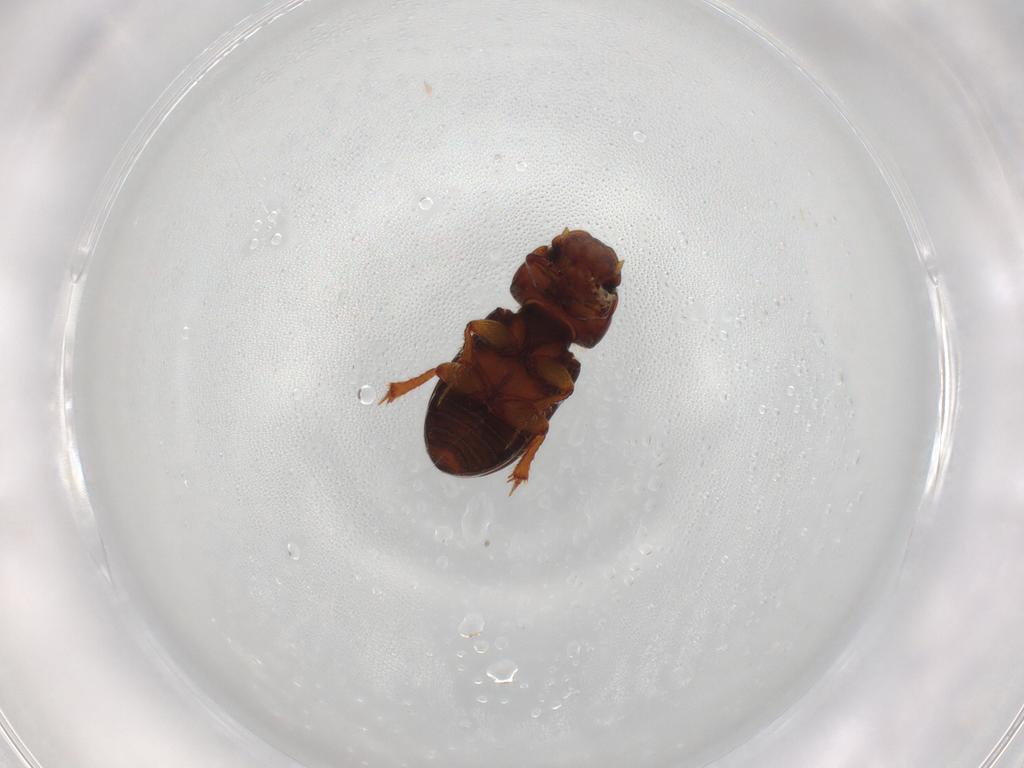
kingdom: Animalia
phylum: Arthropoda
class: Insecta
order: Coleoptera
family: Scarabaeidae
